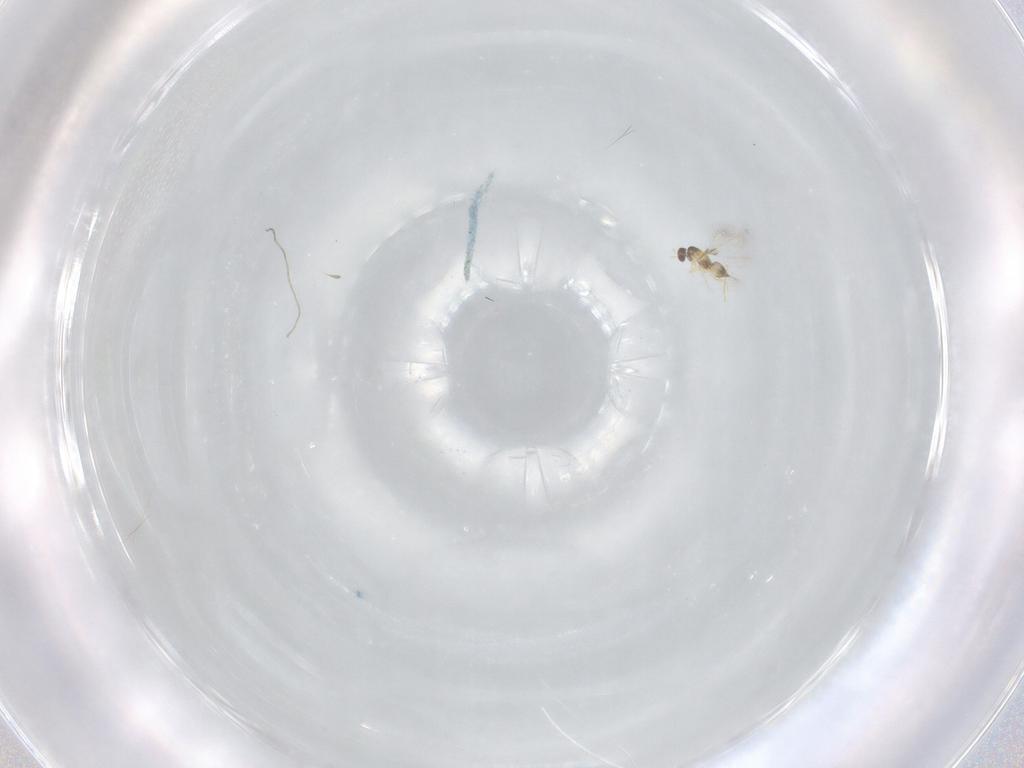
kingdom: Animalia
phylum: Arthropoda
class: Insecta
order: Hymenoptera
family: Mymaridae
